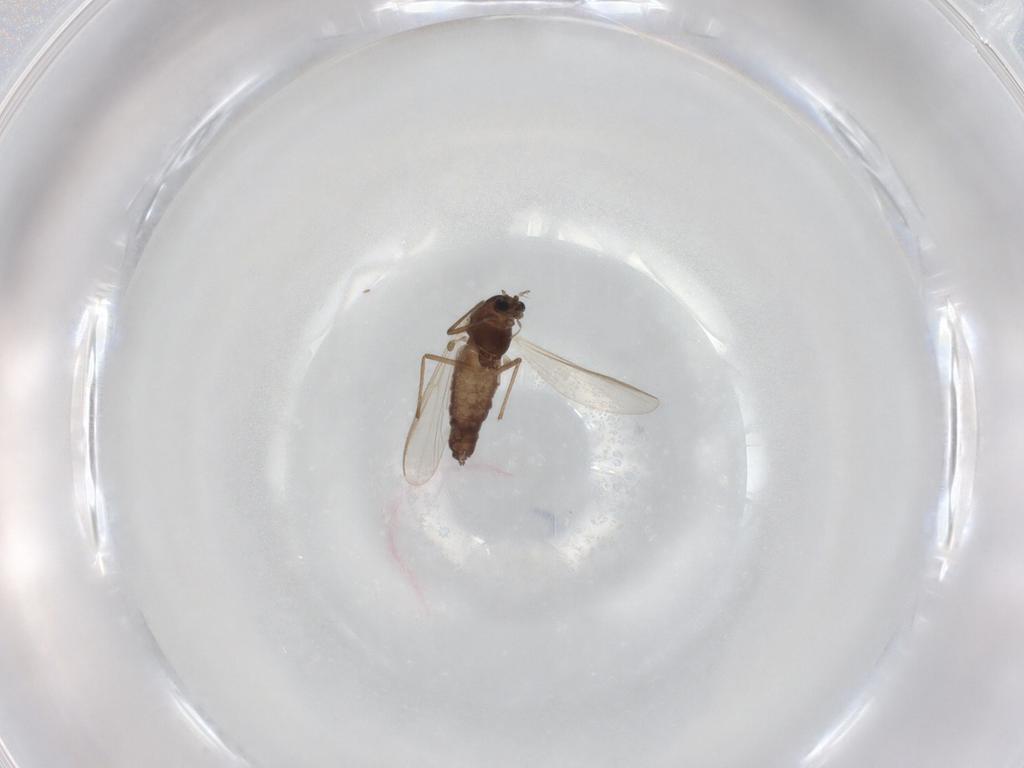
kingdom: Animalia
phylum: Arthropoda
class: Insecta
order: Diptera
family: Chironomidae
